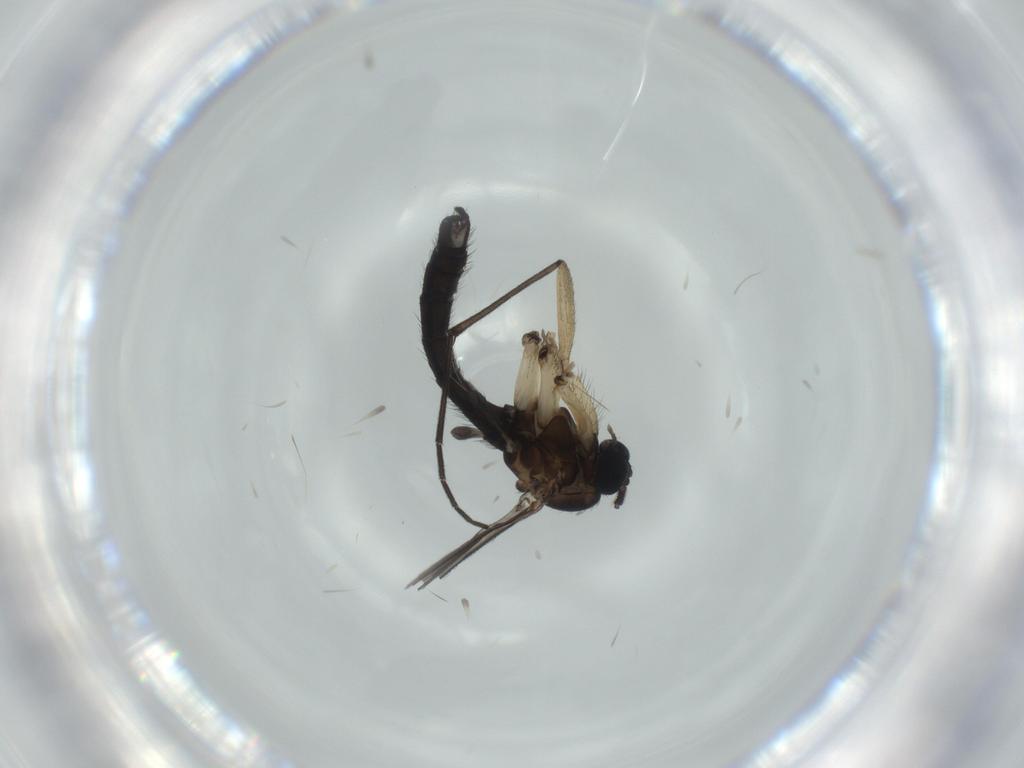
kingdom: Animalia
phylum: Arthropoda
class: Insecta
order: Diptera
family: Sciaridae
